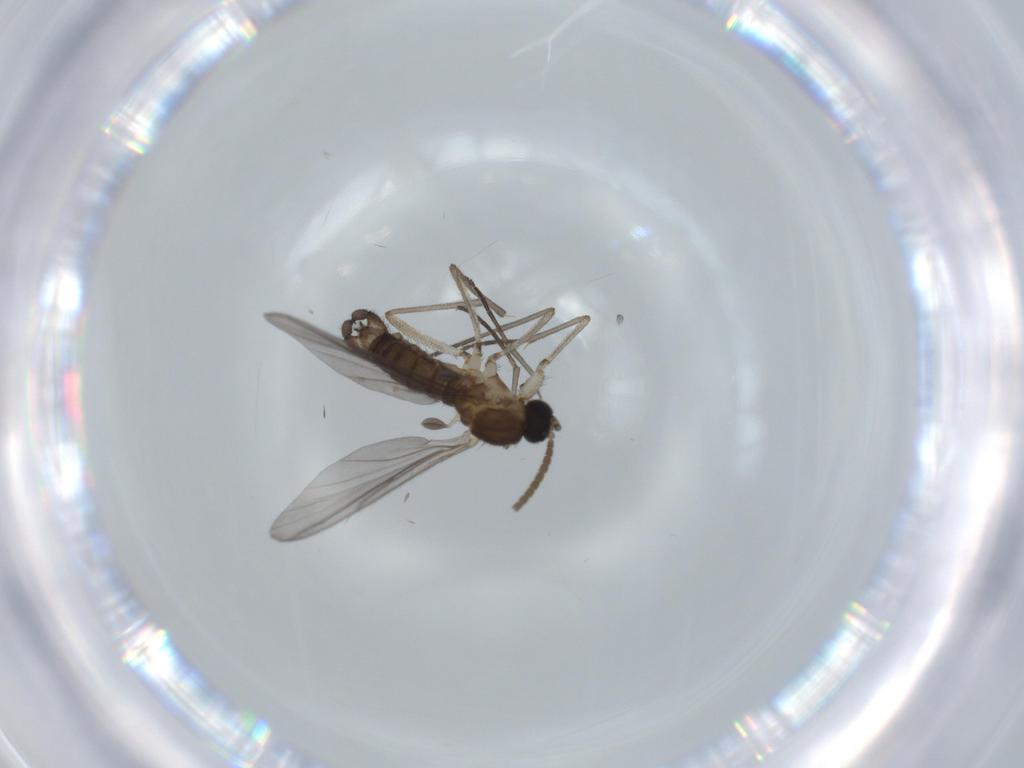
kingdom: Animalia
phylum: Arthropoda
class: Insecta
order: Diptera
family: Sciaridae
